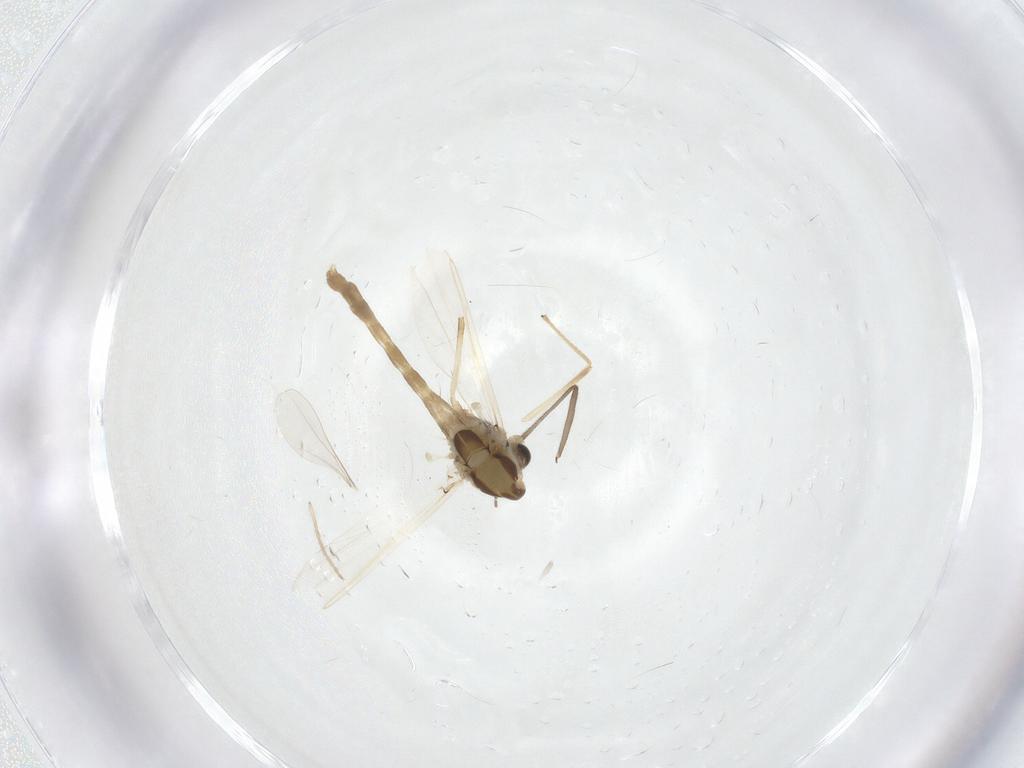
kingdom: Animalia
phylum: Arthropoda
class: Insecta
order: Diptera
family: Chironomidae
